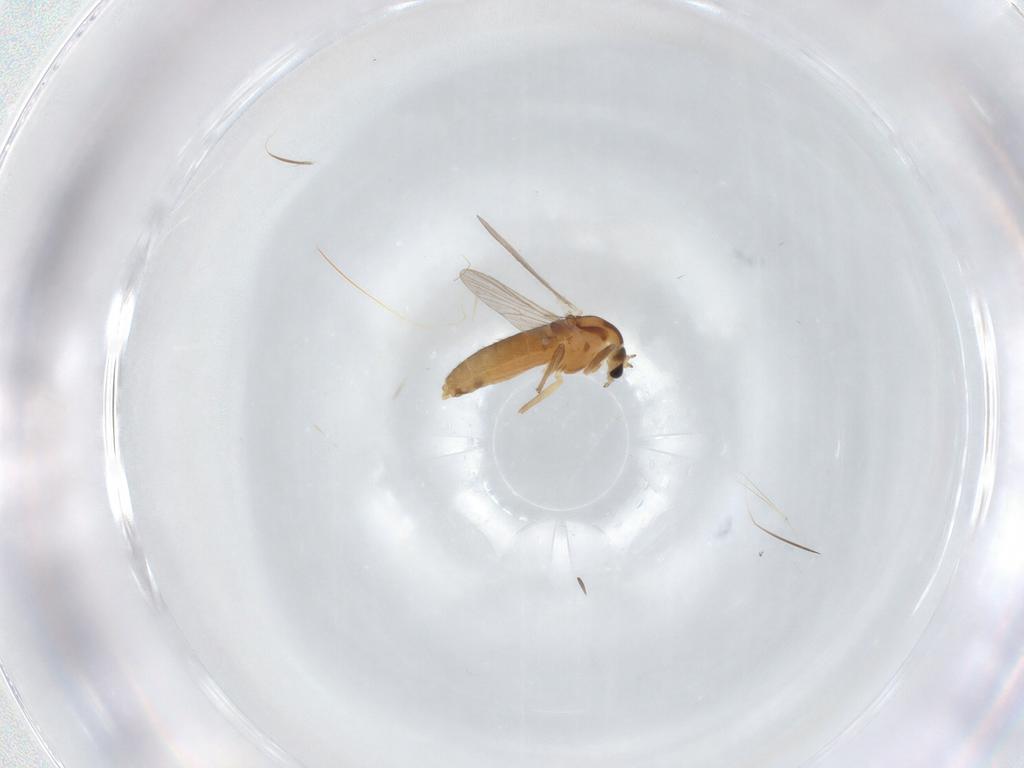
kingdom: Animalia
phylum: Arthropoda
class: Insecta
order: Diptera
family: Chironomidae
